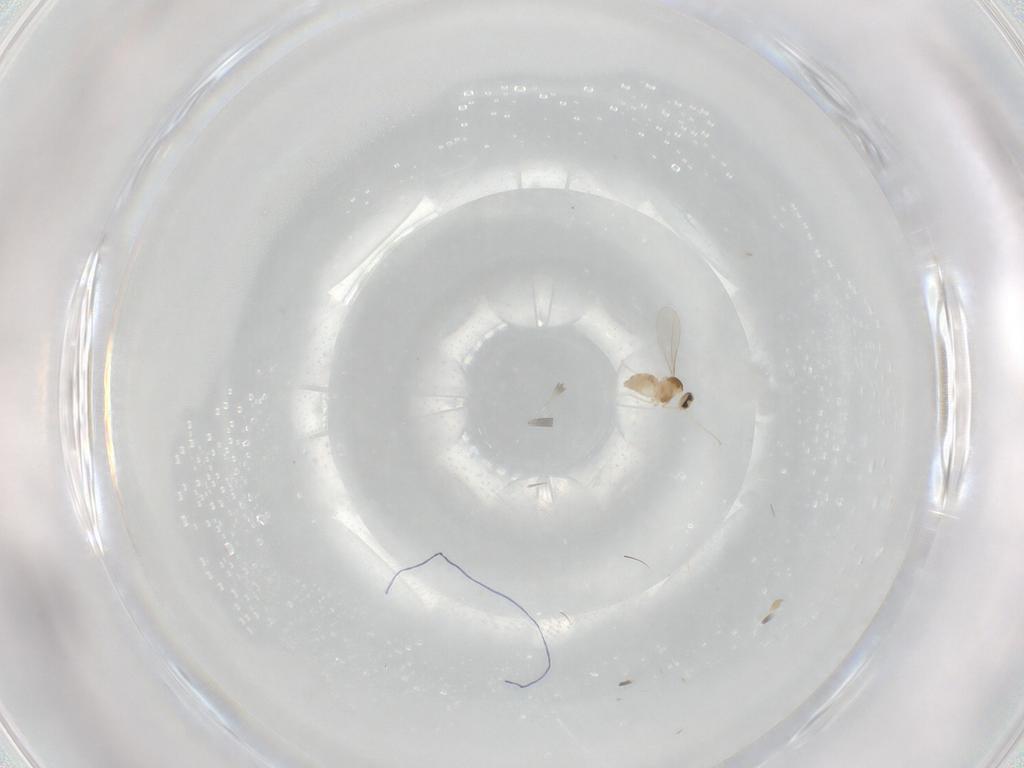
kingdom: Animalia
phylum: Arthropoda
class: Insecta
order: Diptera
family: Cecidomyiidae
